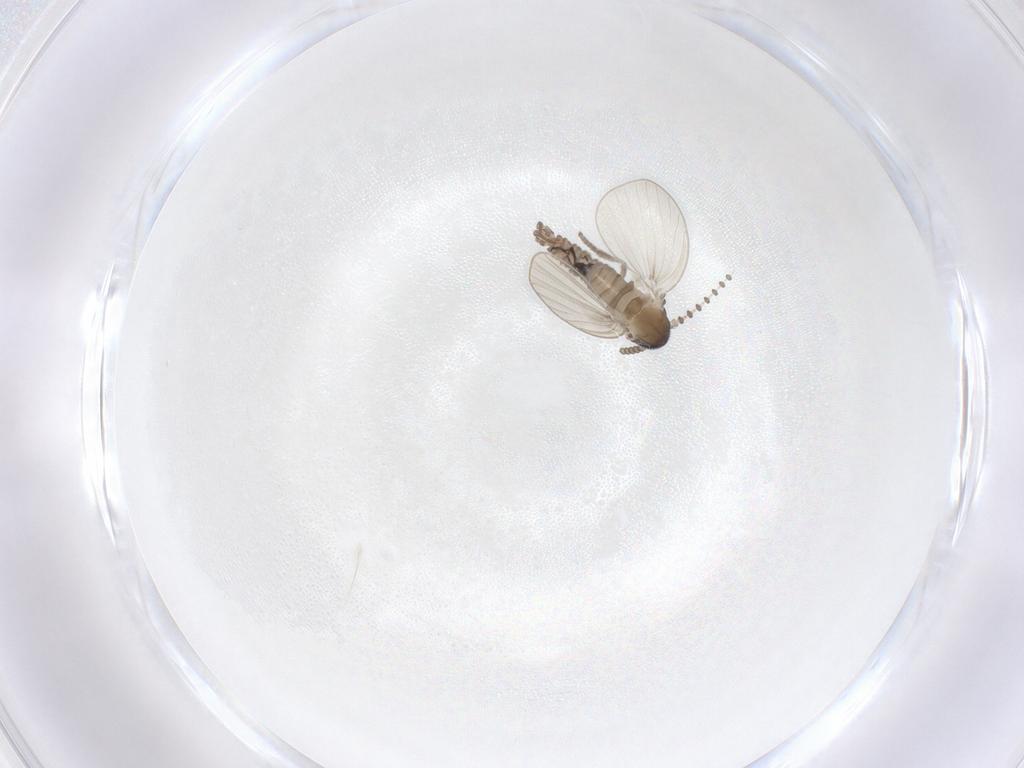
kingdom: Animalia
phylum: Arthropoda
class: Insecta
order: Diptera
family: Psychodidae
